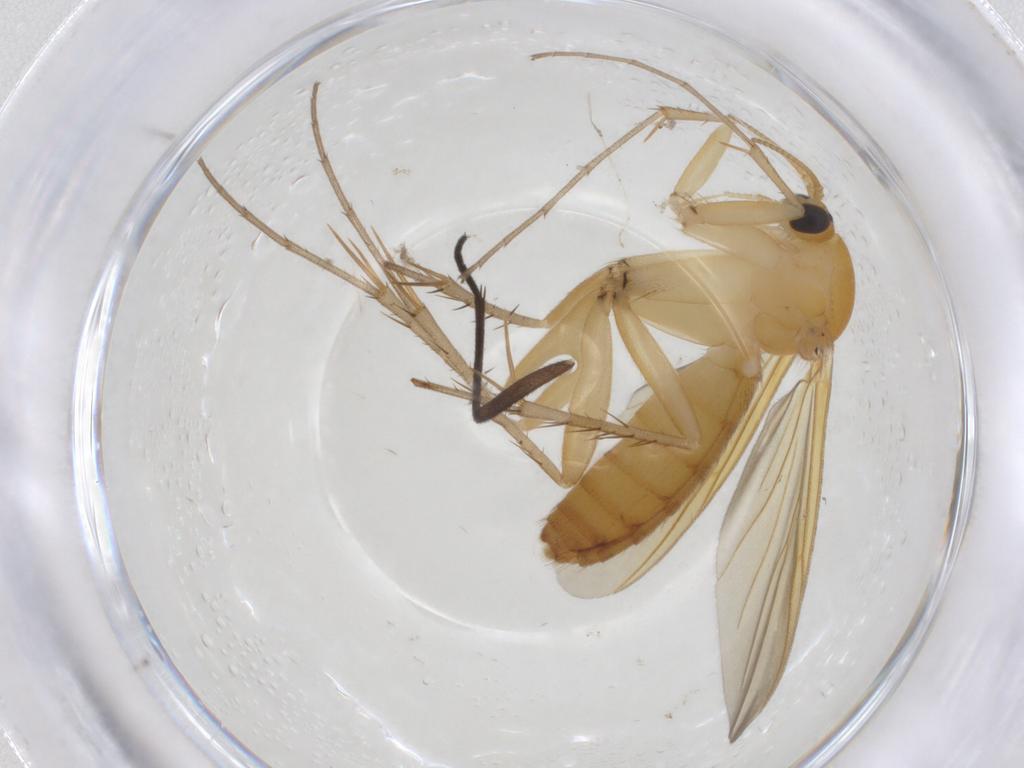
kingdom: Animalia
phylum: Arthropoda
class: Insecta
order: Diptera
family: Mycetophilidae
